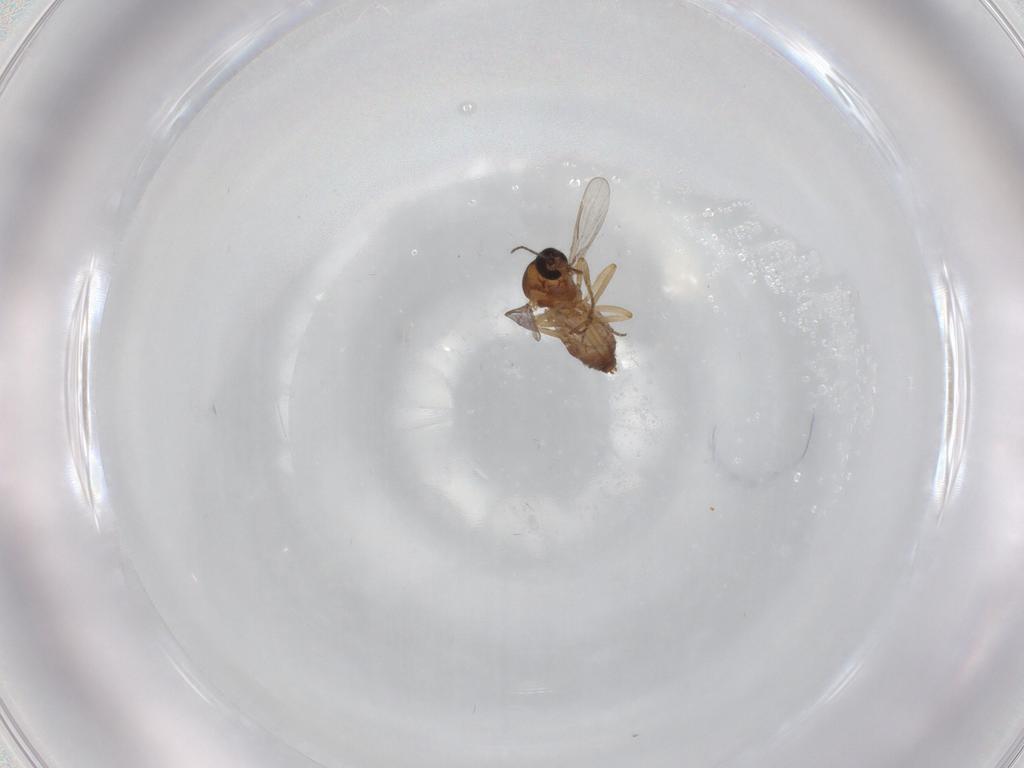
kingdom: Animalia
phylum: Arthropoda
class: Insecta
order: Diptera
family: Ceratopogonidae
